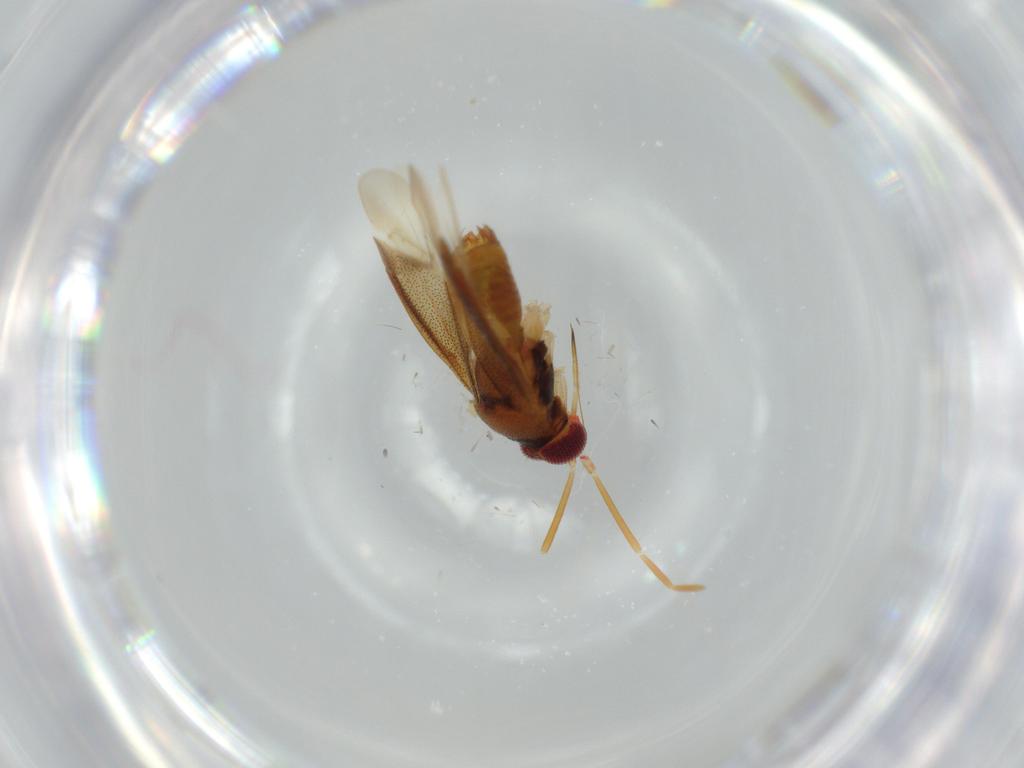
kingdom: Animalia
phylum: Arthropoda
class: Insecta
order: Hemiptera
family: Miridae
